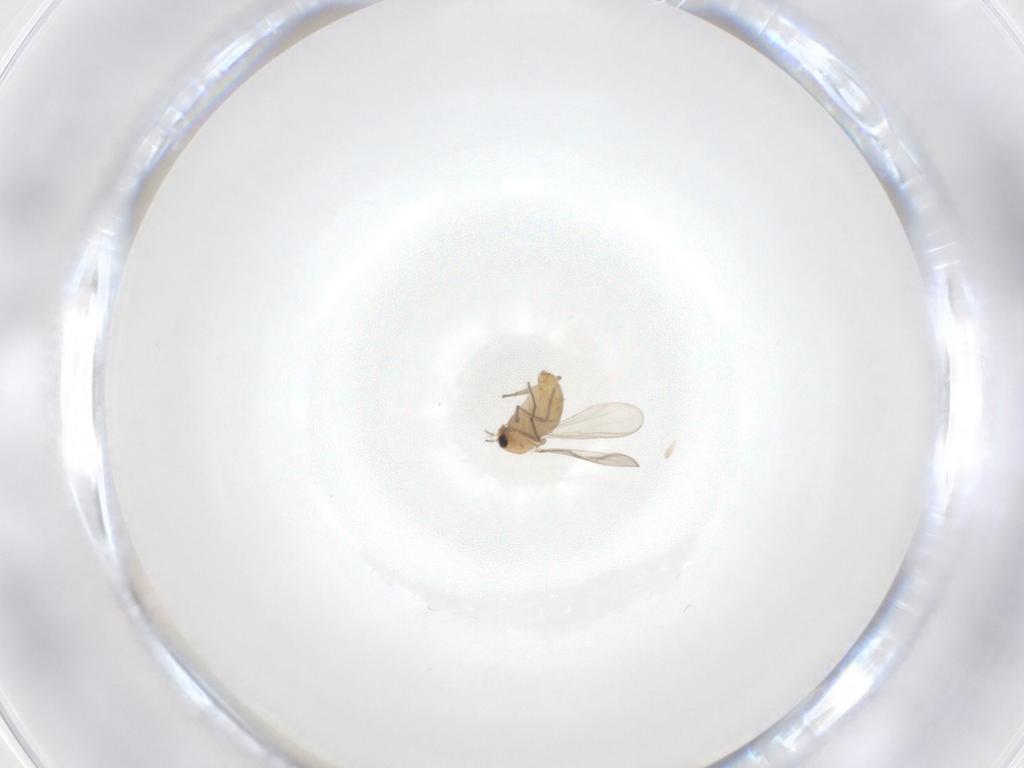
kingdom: Animalia
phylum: Arthropoda
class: Insecta
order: Diptera
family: Chironomidae
